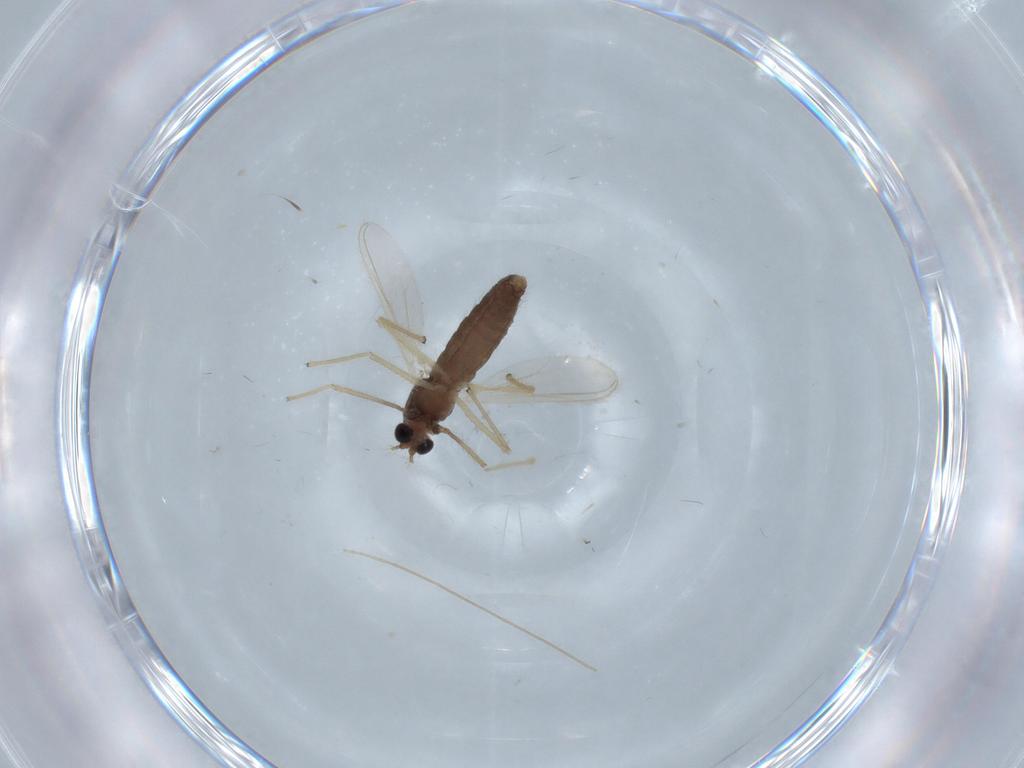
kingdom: Animalia
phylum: Arthropoda
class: Insecta
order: Diptera
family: Chironomidae
